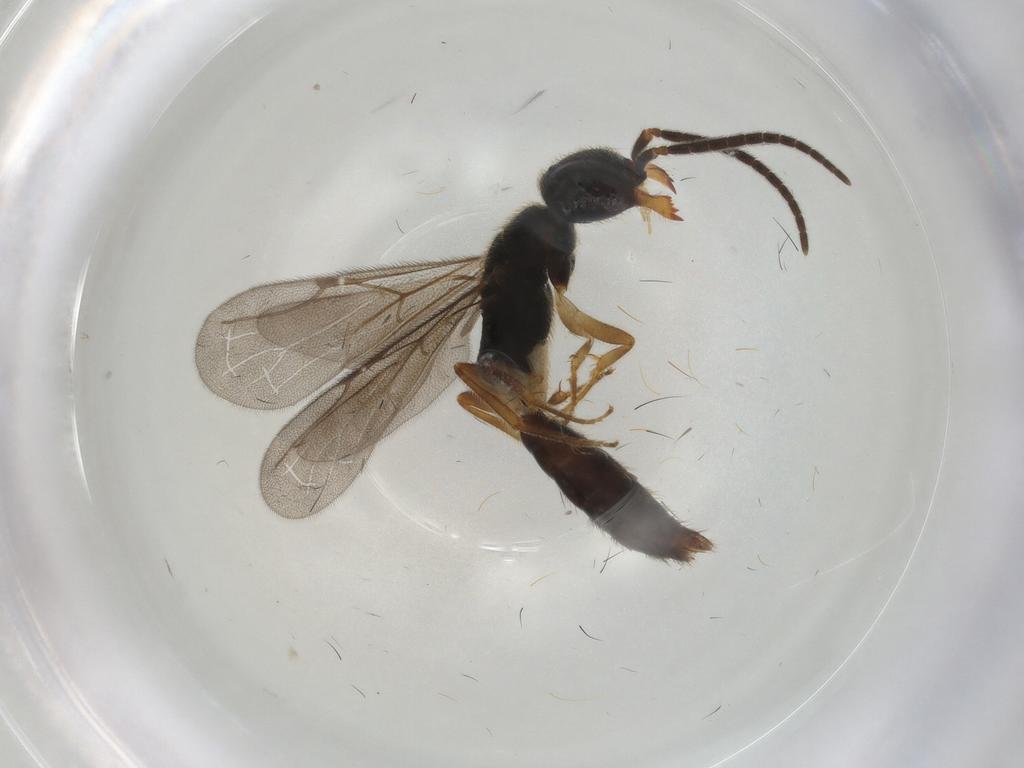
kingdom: Animalia
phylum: Arthropoda
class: Insecta
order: Hymenoptera
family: Bethylidae
